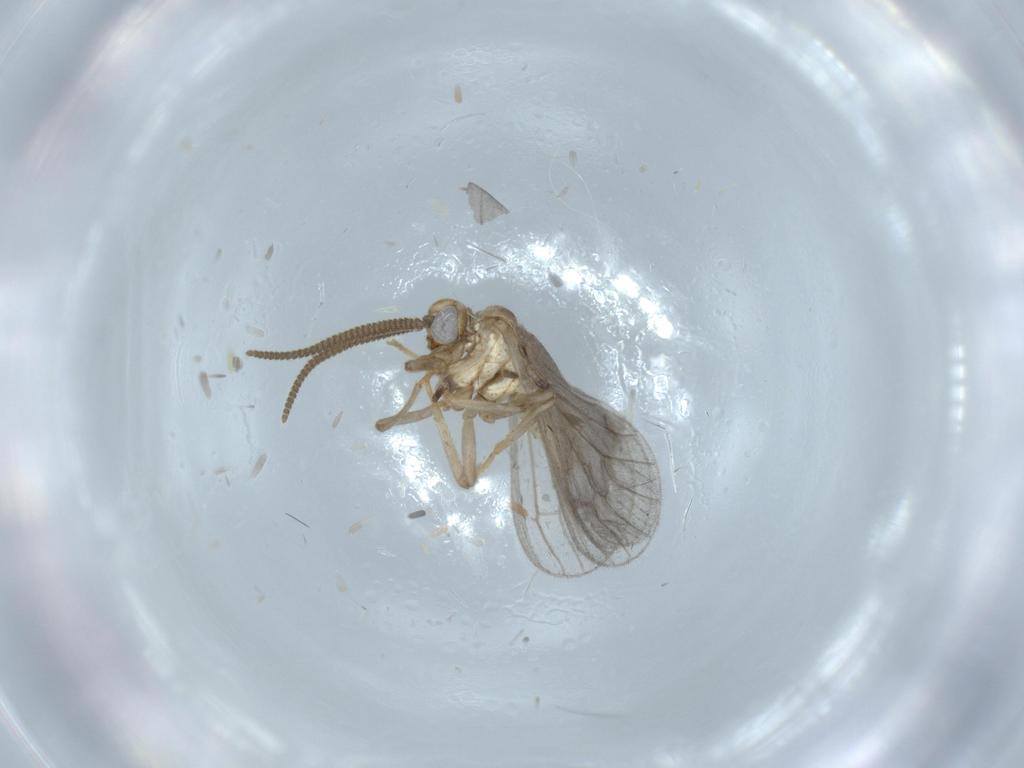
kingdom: Animalia
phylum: Arthropoda
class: Insecta
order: Neuroptera
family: Coniopterygidae
